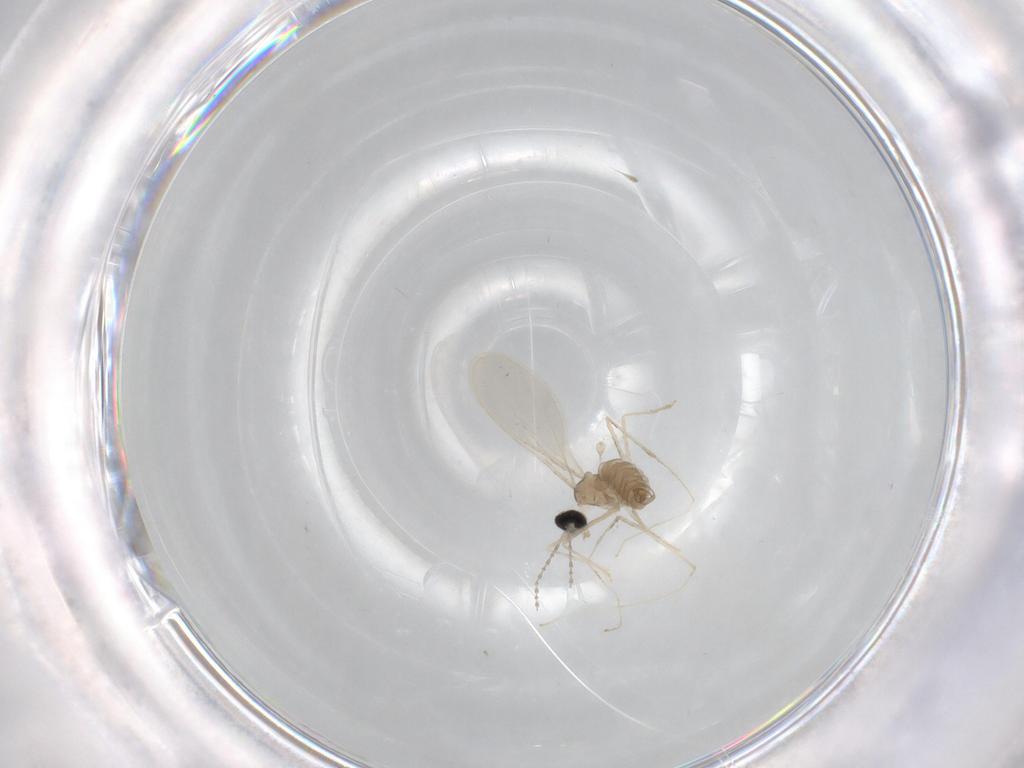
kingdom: Animalia
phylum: Arthropoda
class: Insecta
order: Diptera
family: Cecidomyiidae
